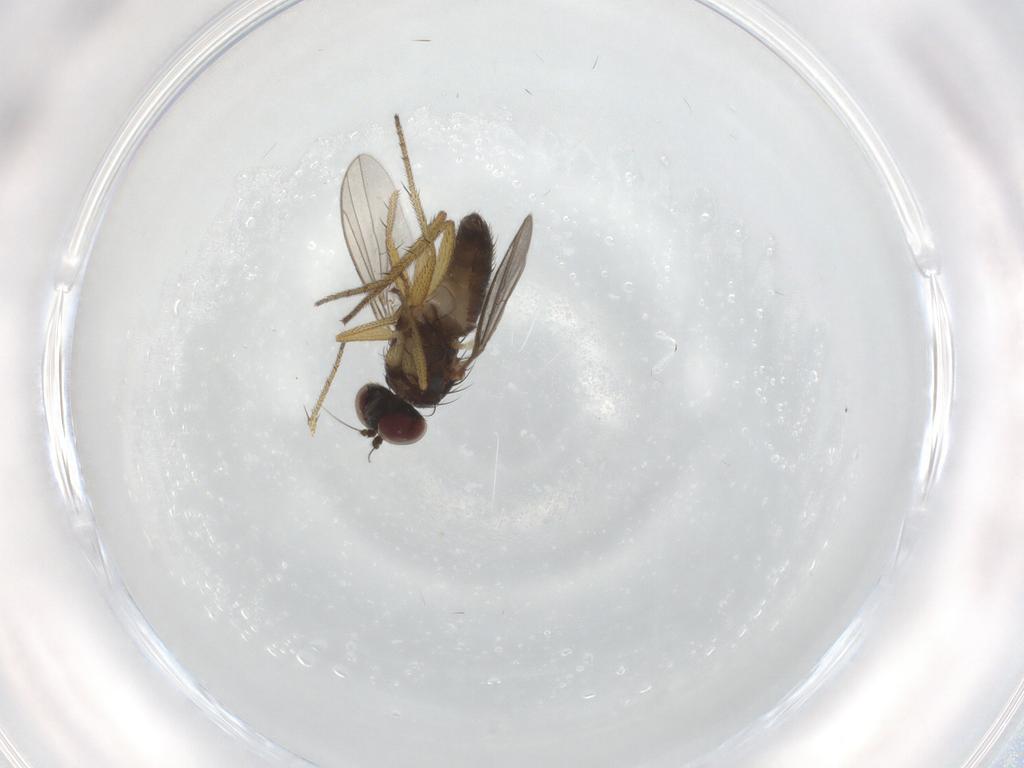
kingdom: Animalia
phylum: Arthropoda
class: Insecta
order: Diptera
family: Dolichopodidae
